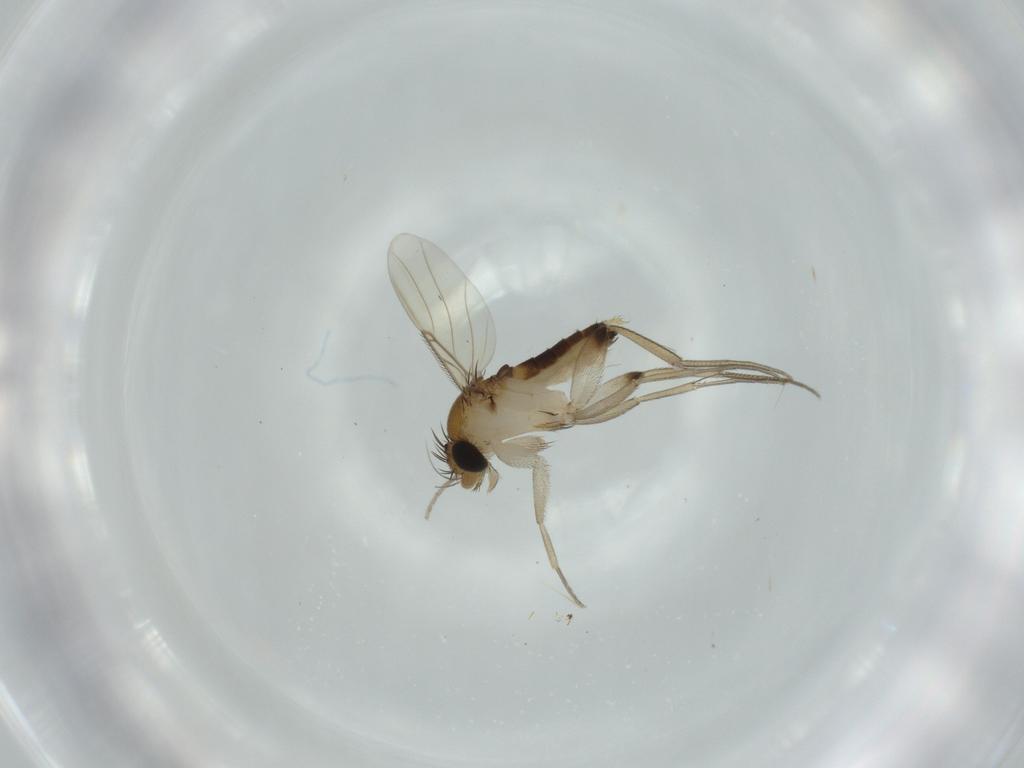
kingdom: Animalia
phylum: Arthropoda
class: Insecta
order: Diptera
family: Phoridae
